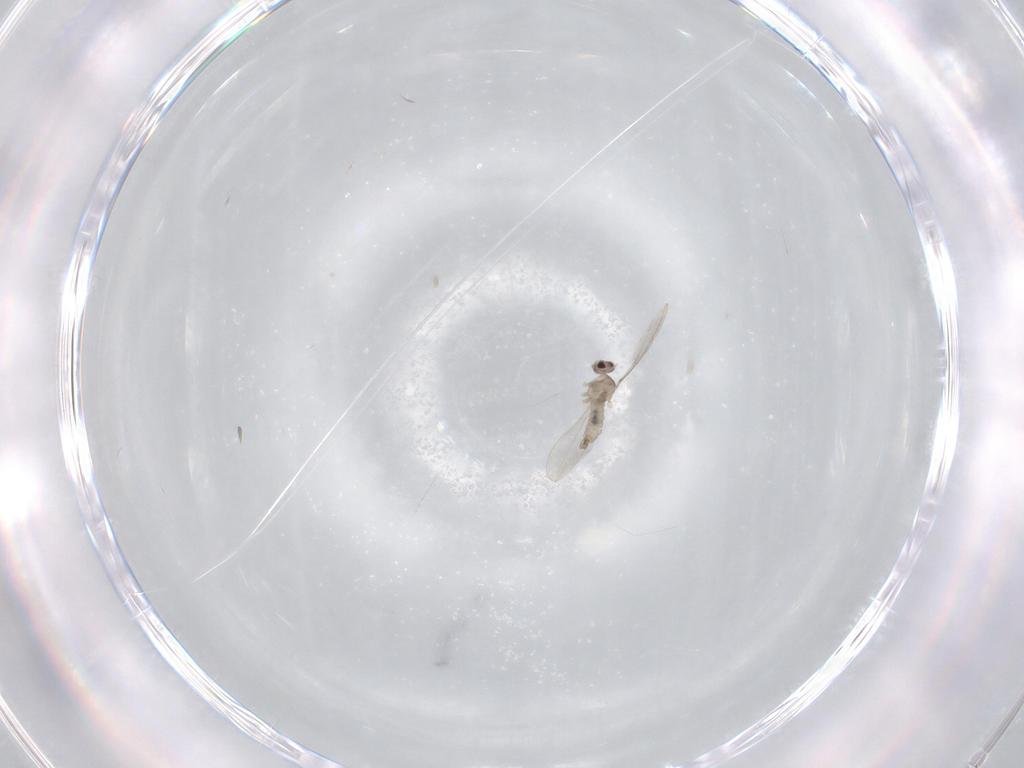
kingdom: Animalia
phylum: Arthropoda
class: Insecta
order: Diptera
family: Cecidomyiidae
